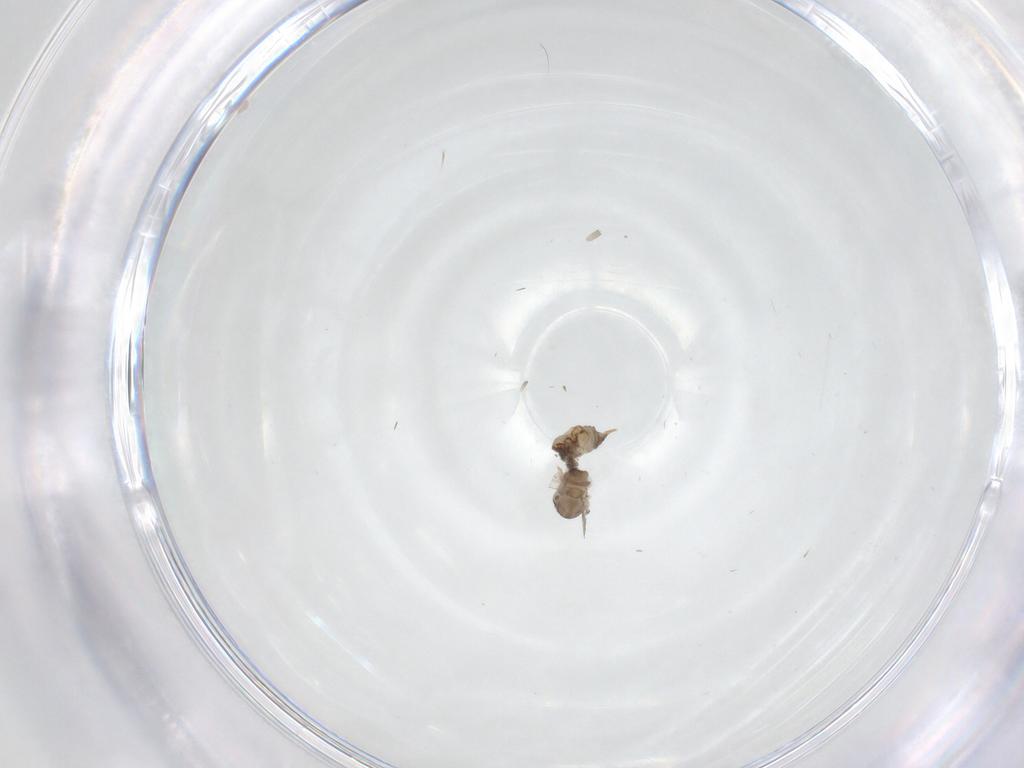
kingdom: Animalia
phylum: Arthropoda
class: Insecta
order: Diptera
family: Psychodidae
